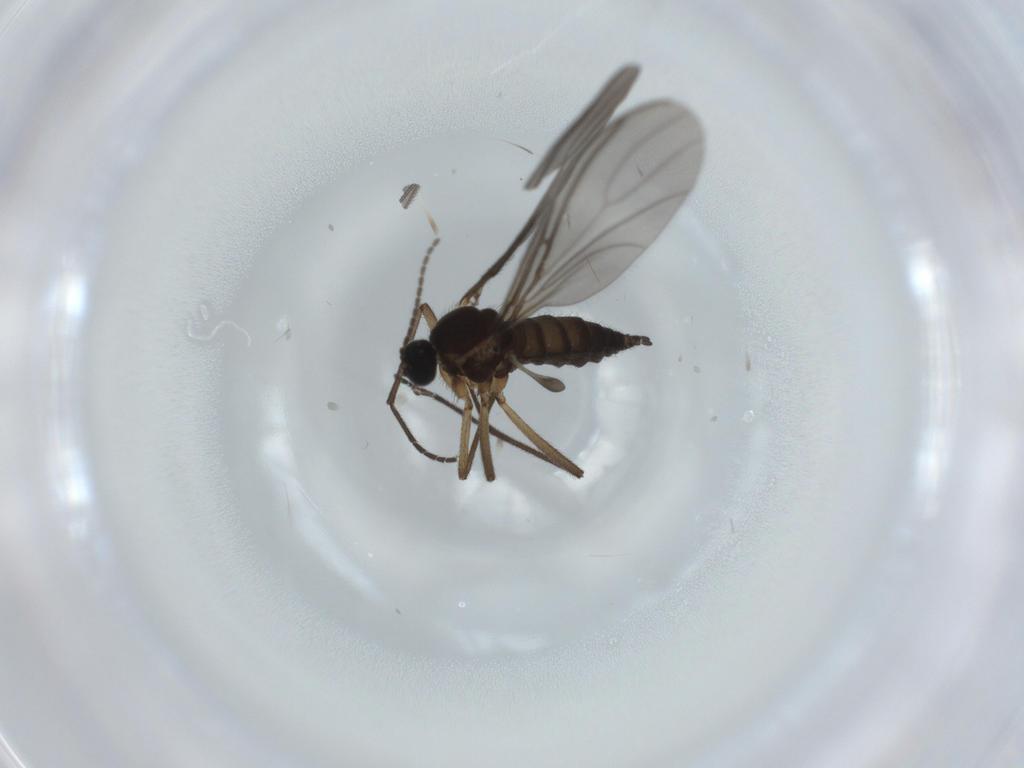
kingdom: Animalia
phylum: Arthropoda
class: Insecta
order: Diptera
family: Sciaridae
